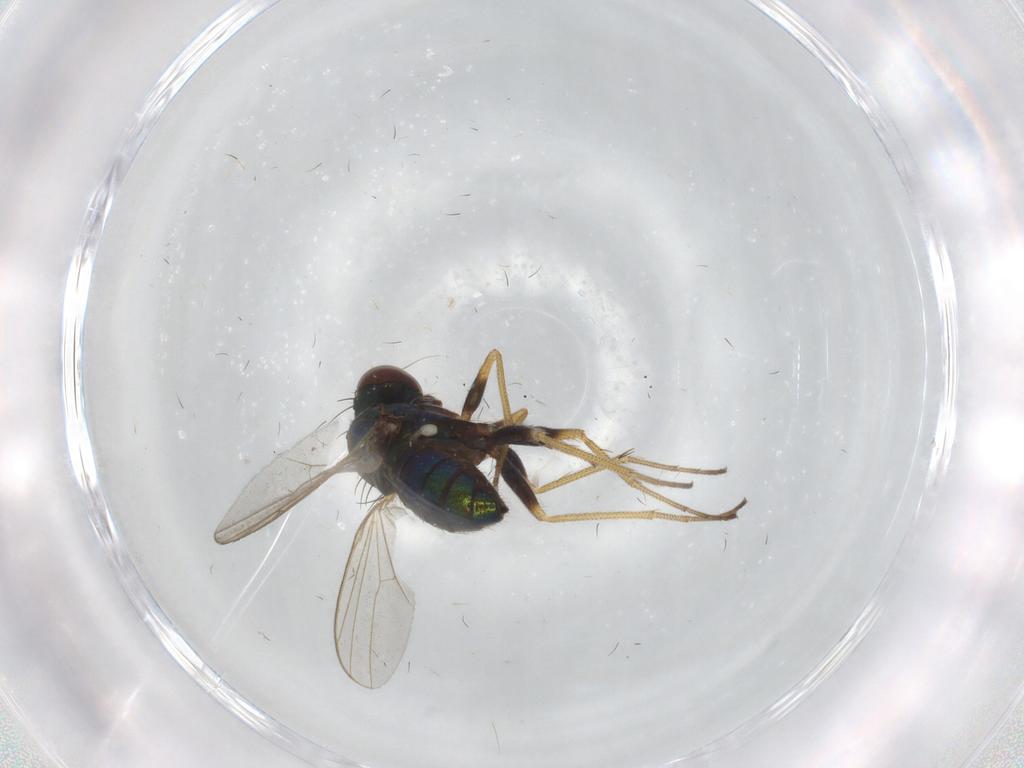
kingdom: Animalia
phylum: Arthropoda
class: Insecta
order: Diptera
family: Dolichopodidae
